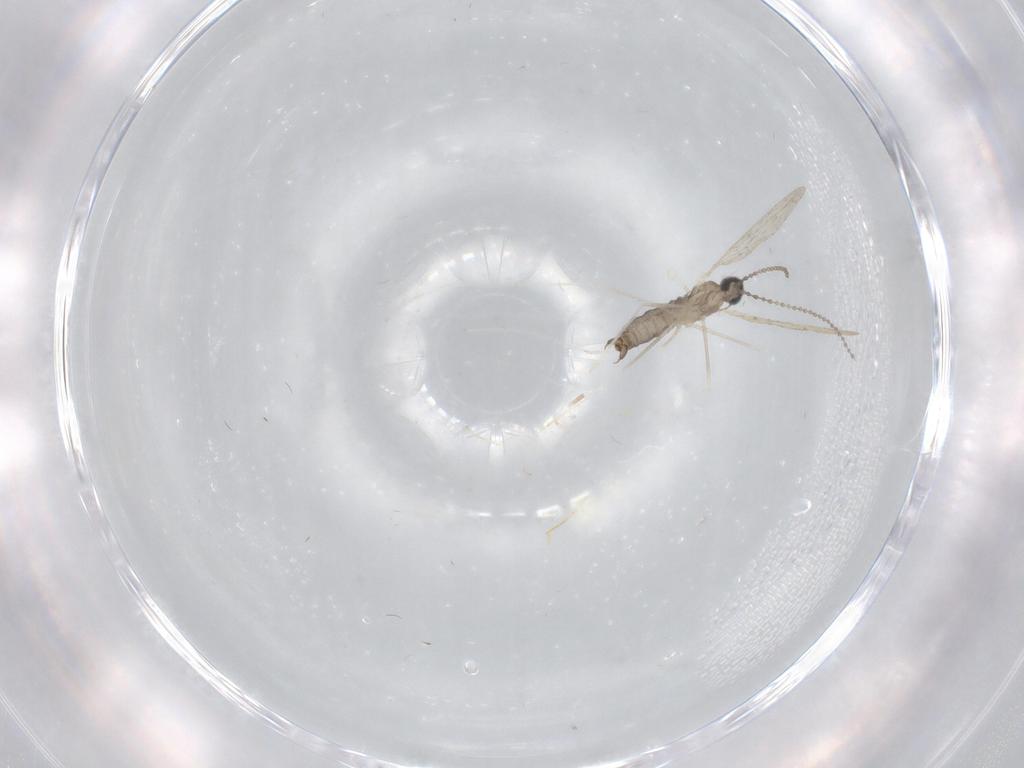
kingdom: Animalia
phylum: Arthropoda
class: Insecta
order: Diptera
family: Cecidomyiidae
